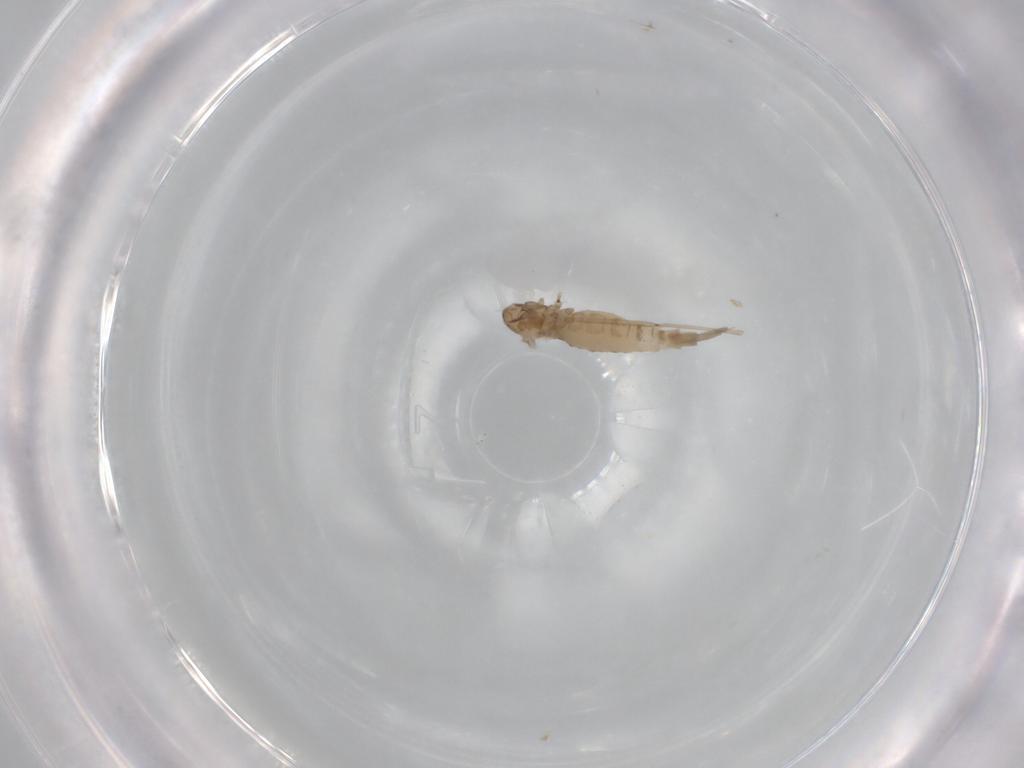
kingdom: Animalia
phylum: Arthropoda
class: Insecta
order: Diptera
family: Cecidomyiidae
